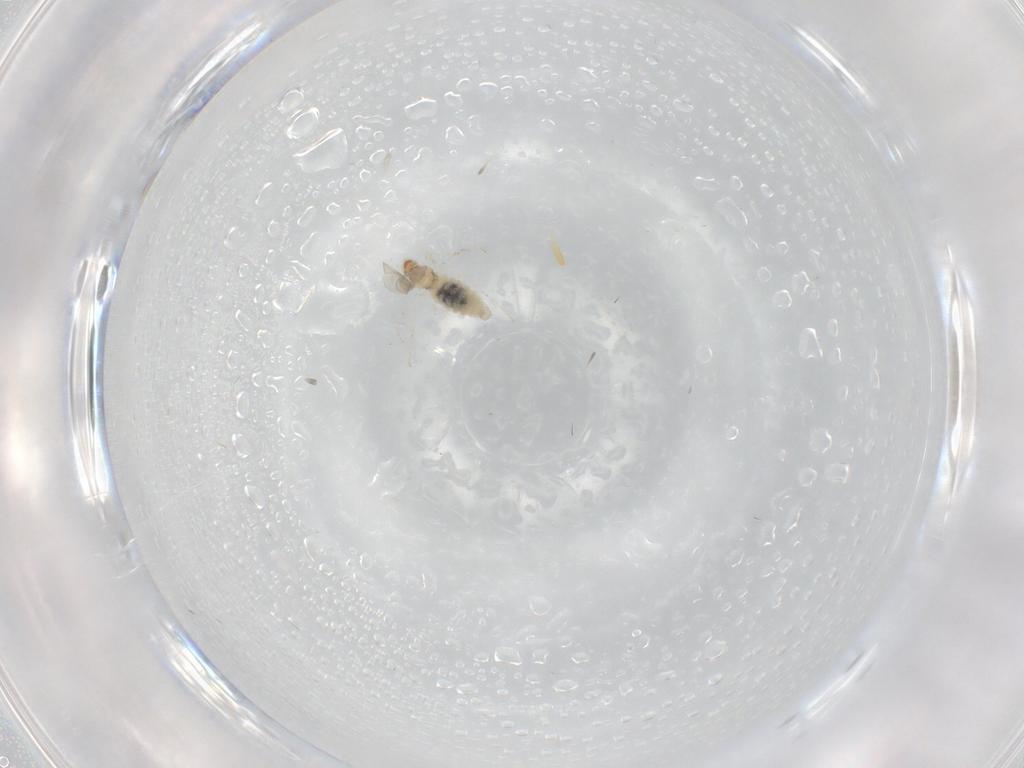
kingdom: Animalia
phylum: Arthropoda
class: Insecta
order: Diptera
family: Cecidomyiidae
